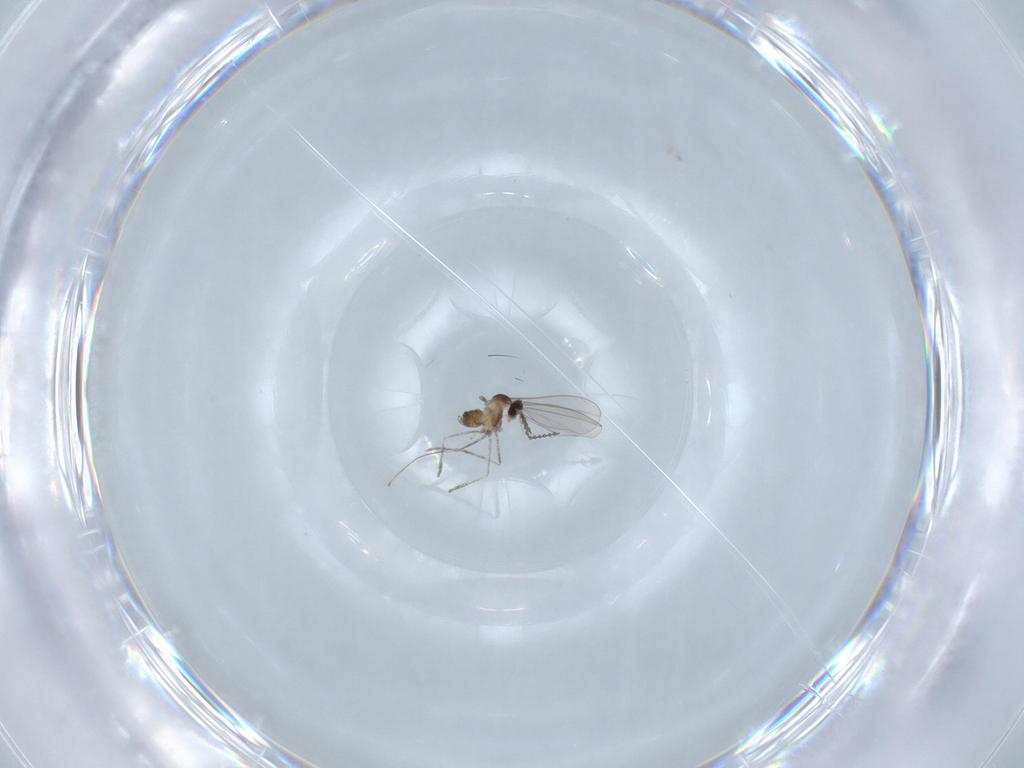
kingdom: Animalia
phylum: Arthropoda
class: Insecta
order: Diptera
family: Cecidomyiidae
